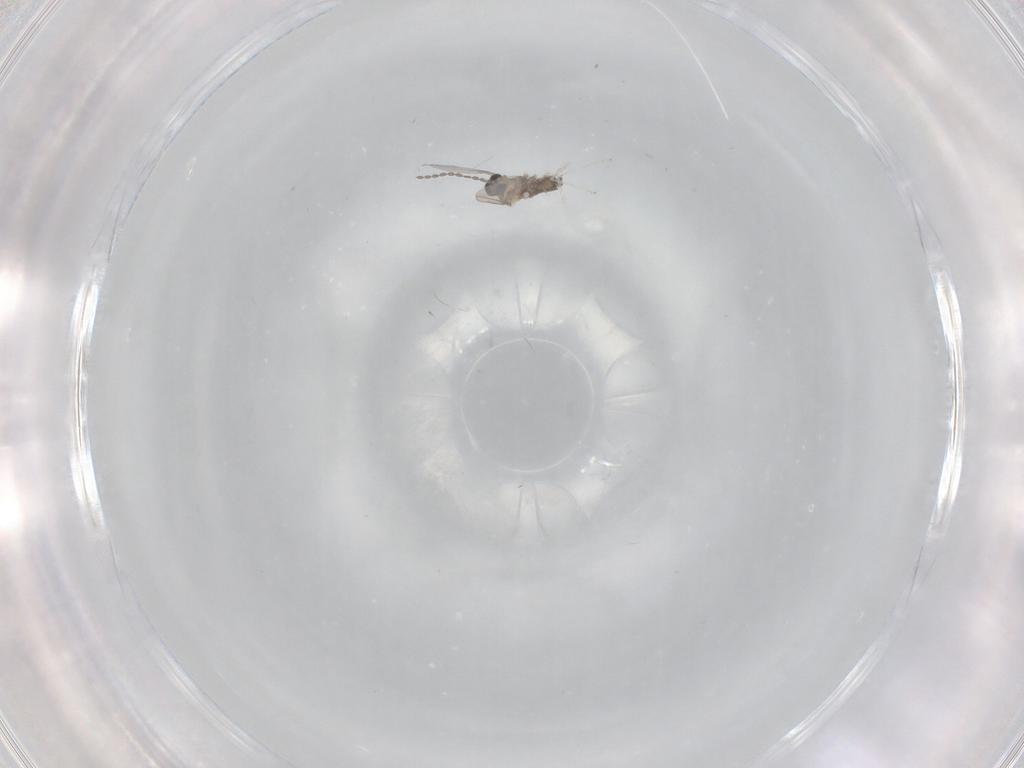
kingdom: Animalia
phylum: Arthropoda
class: Insecta
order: Diptera
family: Cecidomyiidae
